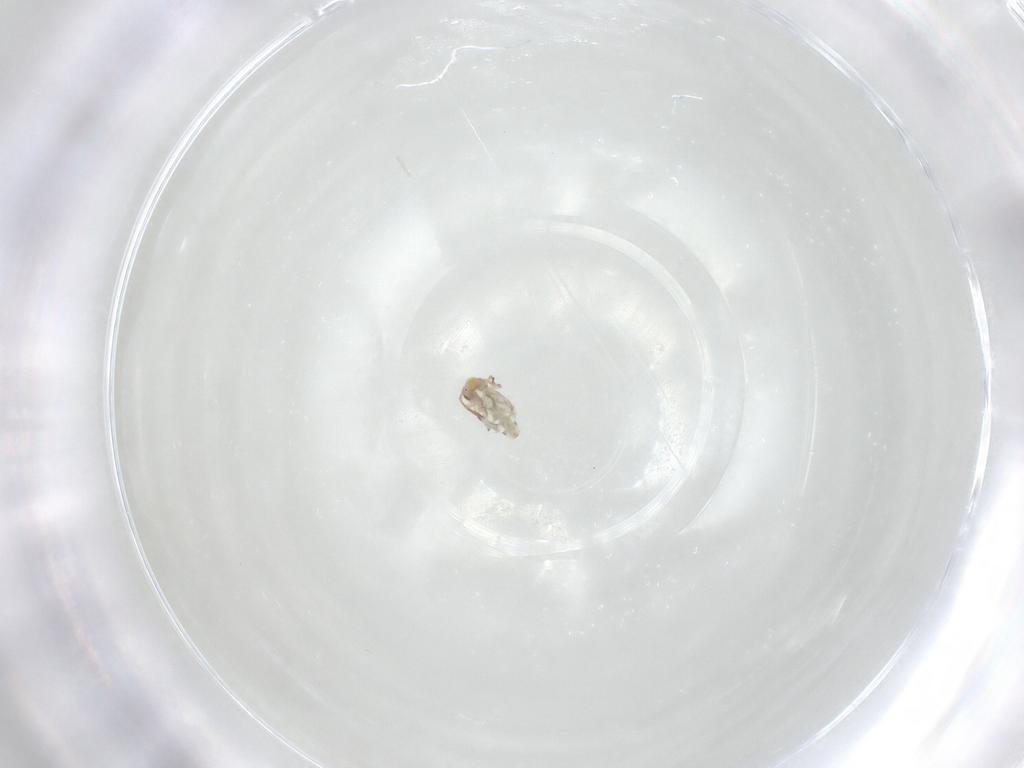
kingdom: Animalia
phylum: Arthropoda
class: Collembola
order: Symphypleona
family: Bourletiellidae
